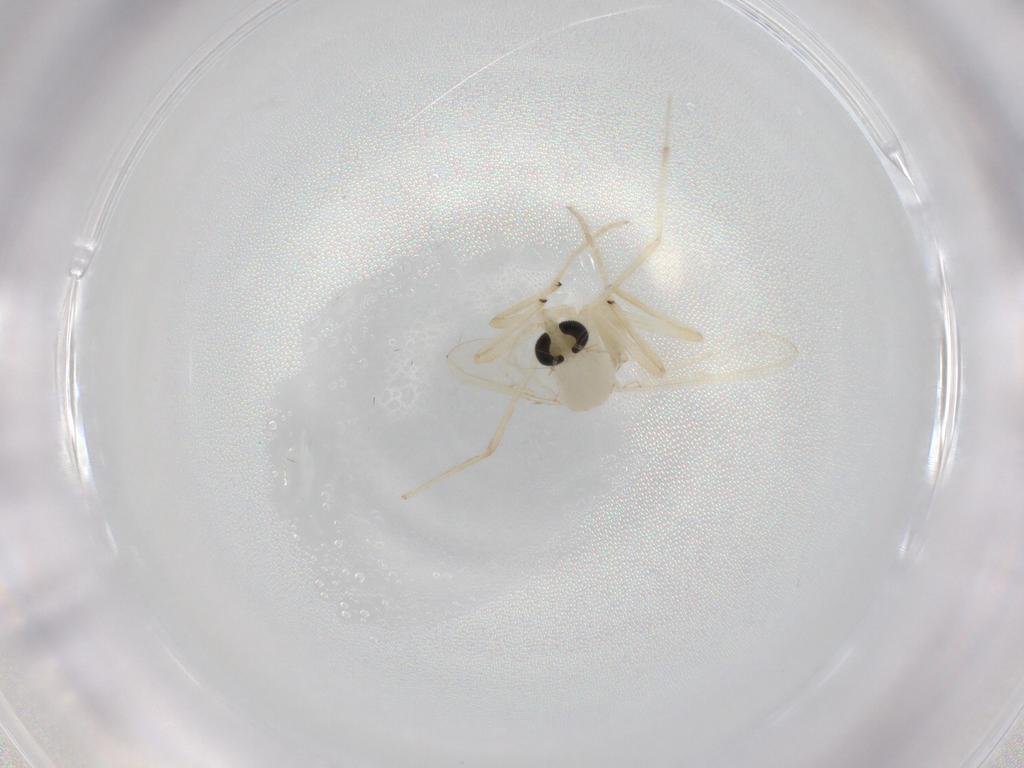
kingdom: Animalia
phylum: Arthropoda
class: Insecta
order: Diptera
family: Chironomidae
